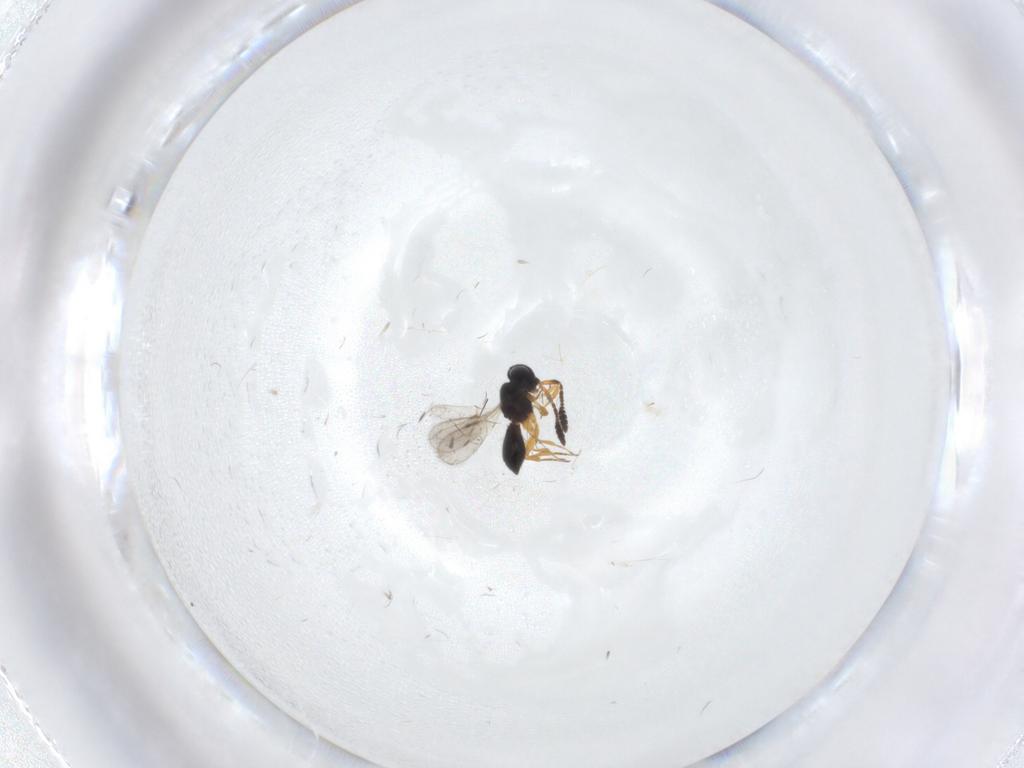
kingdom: Animalia
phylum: Arthropoda
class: Insecta
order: Hymenoptera
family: Scelionidae
